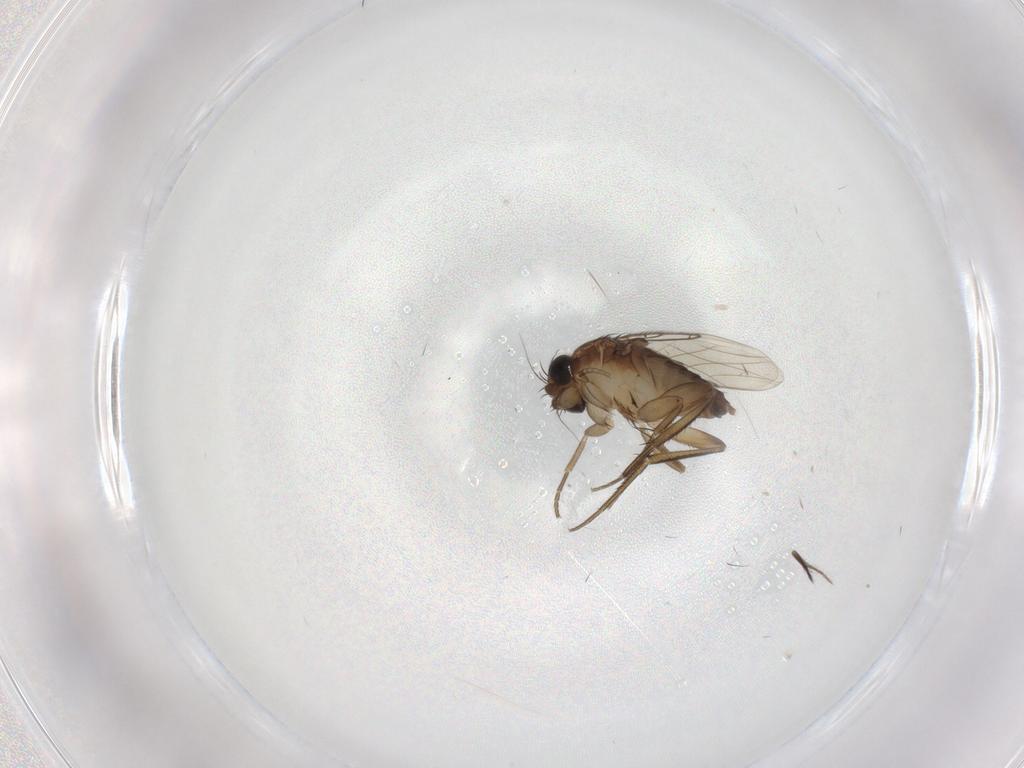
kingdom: Animalia
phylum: Arthropoda
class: Insecta
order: Diptera
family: Phoridae
